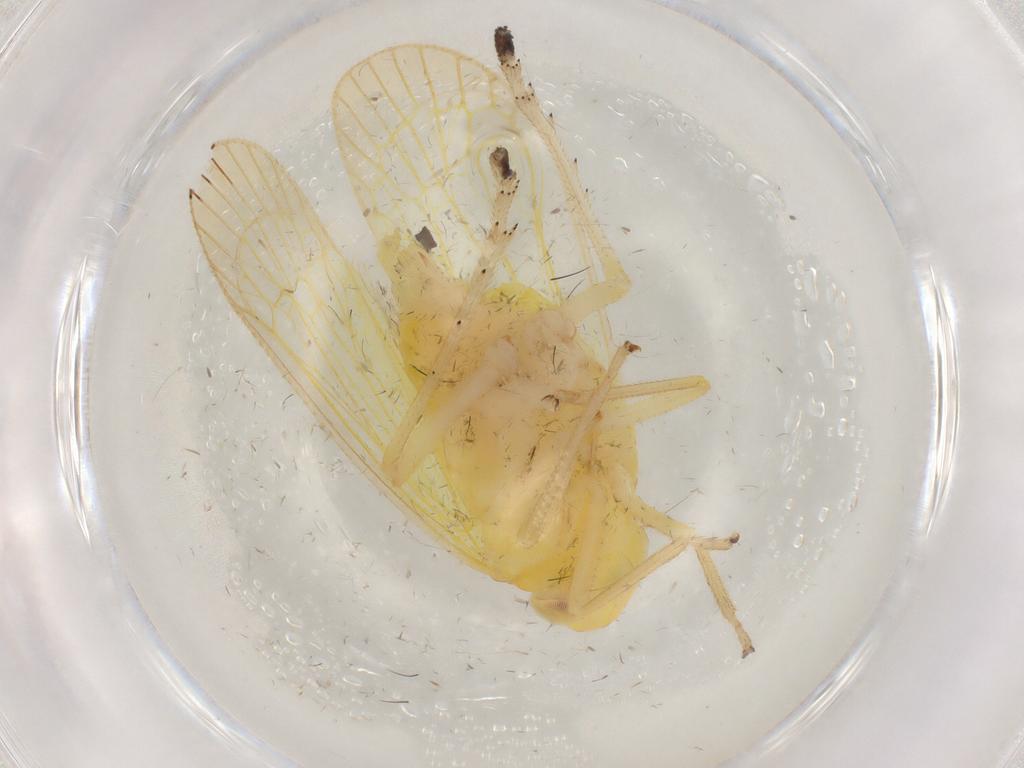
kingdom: Animalia
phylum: Arthropoda
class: Insecta
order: Hemiptera
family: Tropiduchidae
